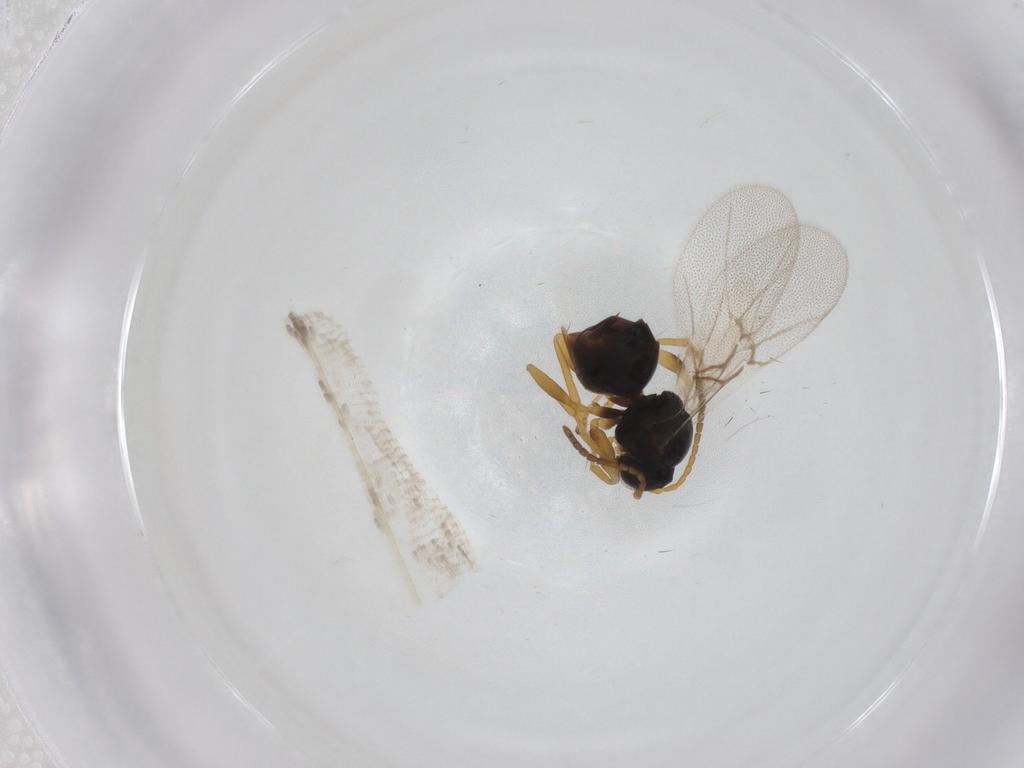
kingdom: Animalia
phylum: Arthropoda
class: Insecta
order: Hymenoptera
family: Cynipidae
